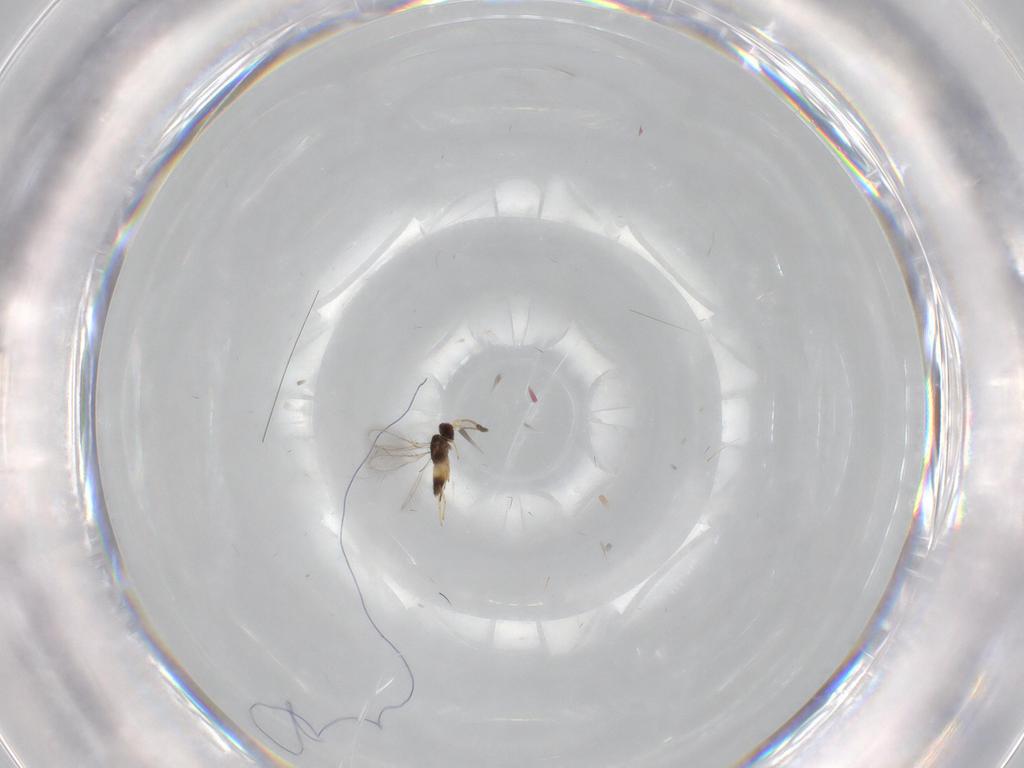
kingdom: Animalia
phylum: Arthropoda
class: Insecta
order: Hymenoptera
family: Mymaridae
